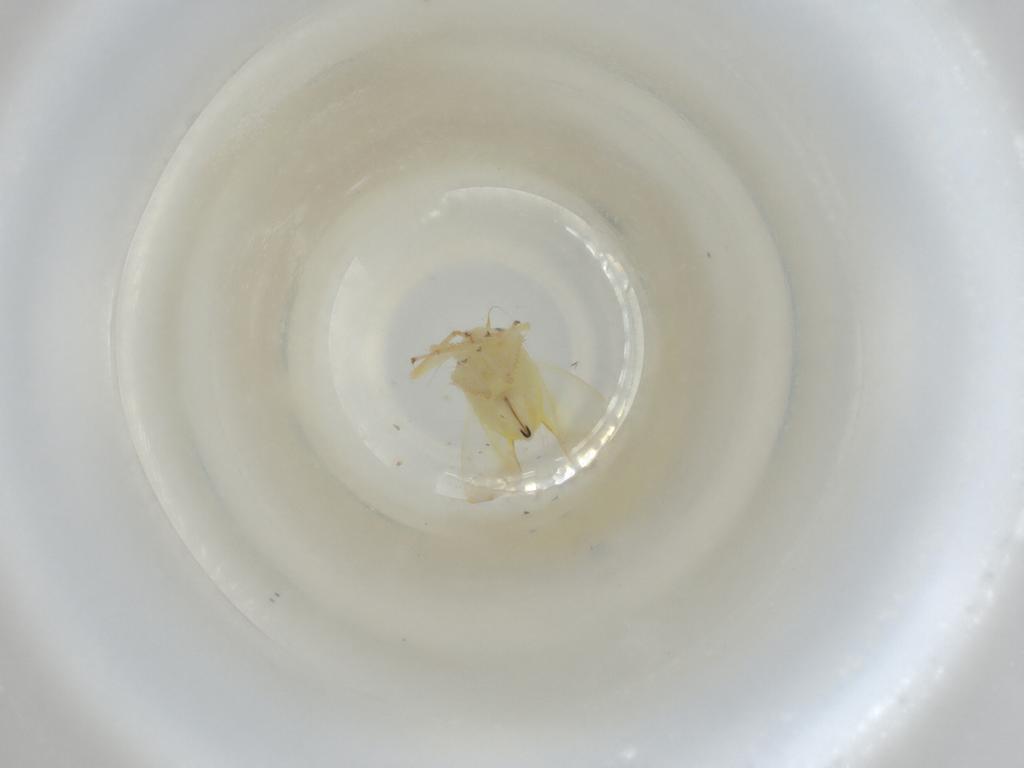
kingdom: Animalia
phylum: Arthropoda
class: Insecta
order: Hemiptera
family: Cicadellidae
